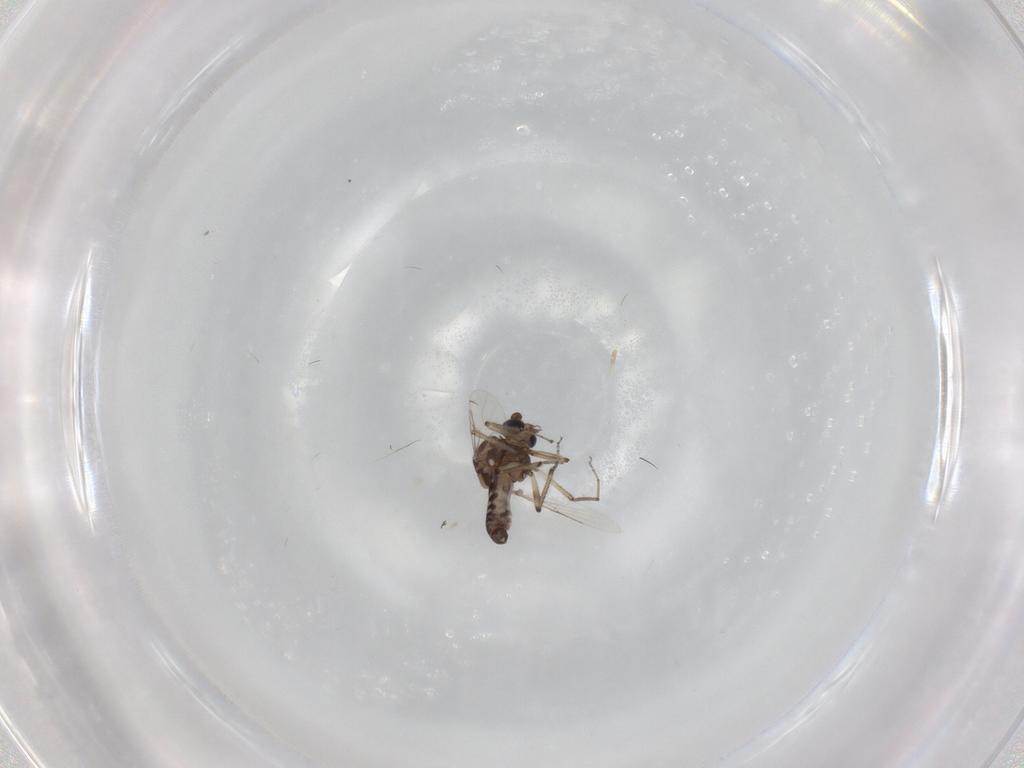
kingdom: Animalia
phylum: Arthropoda
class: Insecta
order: Diptera
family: Ceratopogonidae
